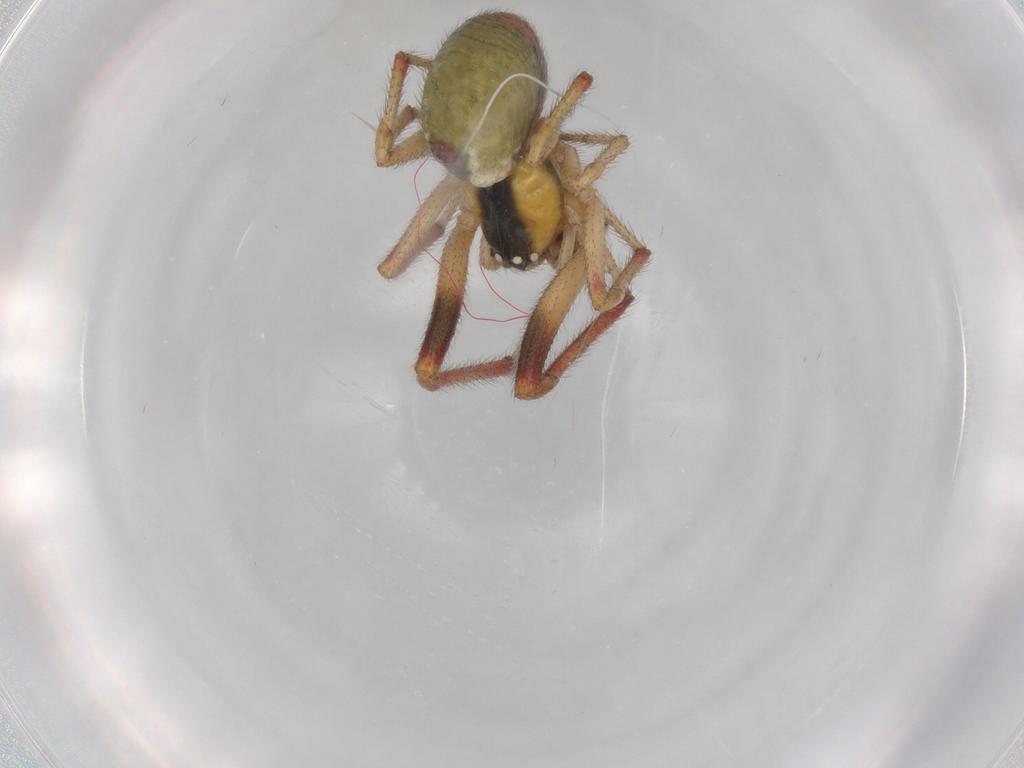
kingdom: Animalia
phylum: Arthropoda
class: Arachnida
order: Araneae
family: Theridiidae
